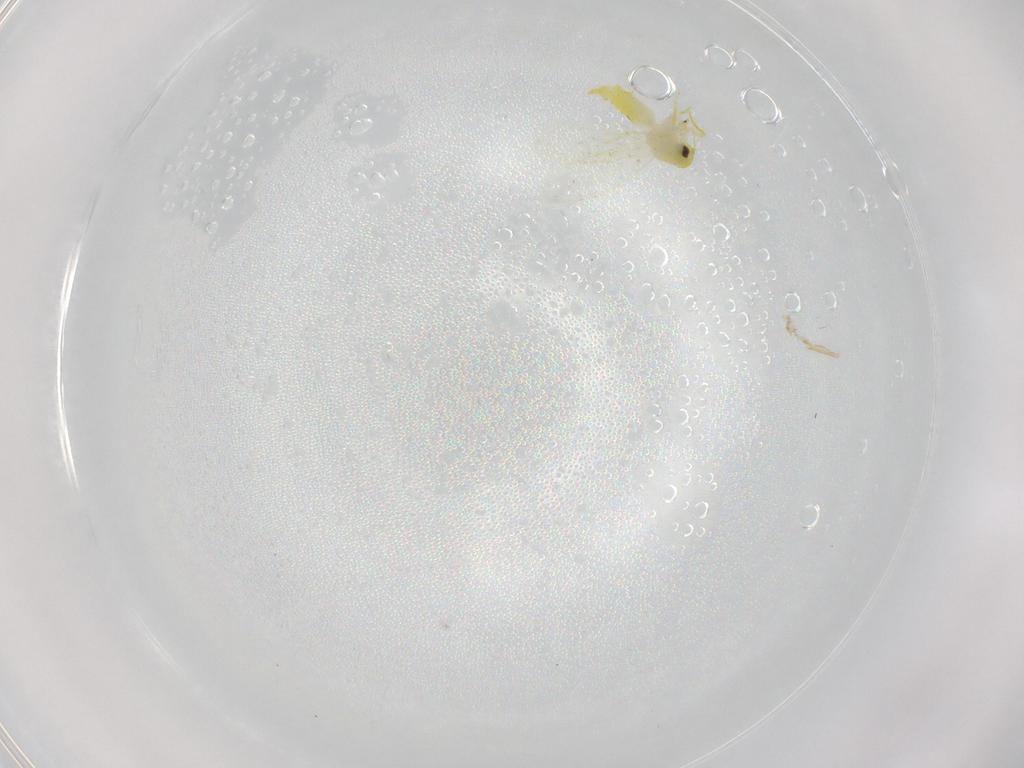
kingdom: Animalia
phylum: Arthropoda
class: Insecta
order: Hemiptera
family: Aleyrodidae
